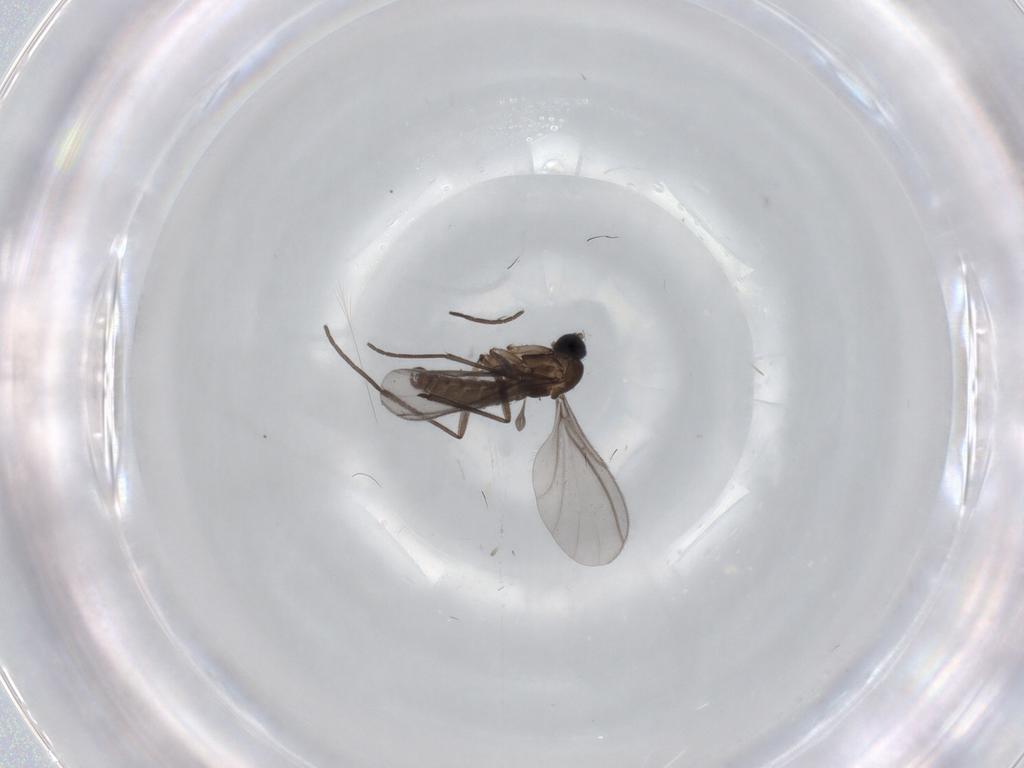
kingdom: Animalia
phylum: Arthropoda
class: Insecta
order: Diptera
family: Sciaridae
